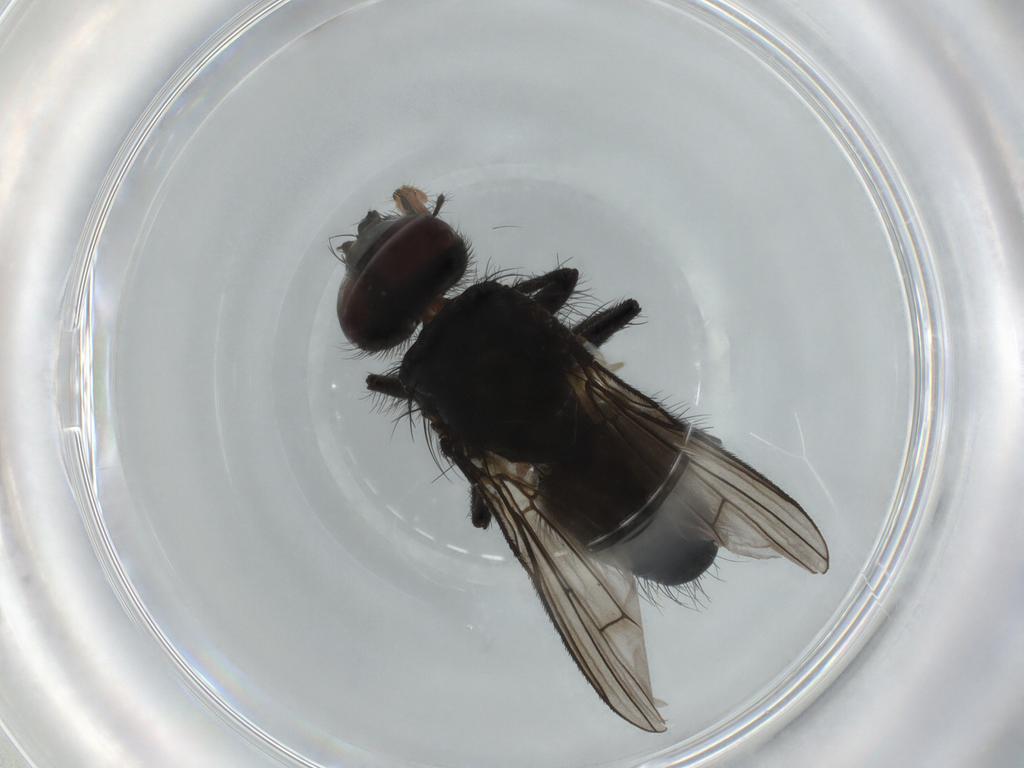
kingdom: Animalia
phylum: Arthropoda
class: Insecta
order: Diptera
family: Muscidae
